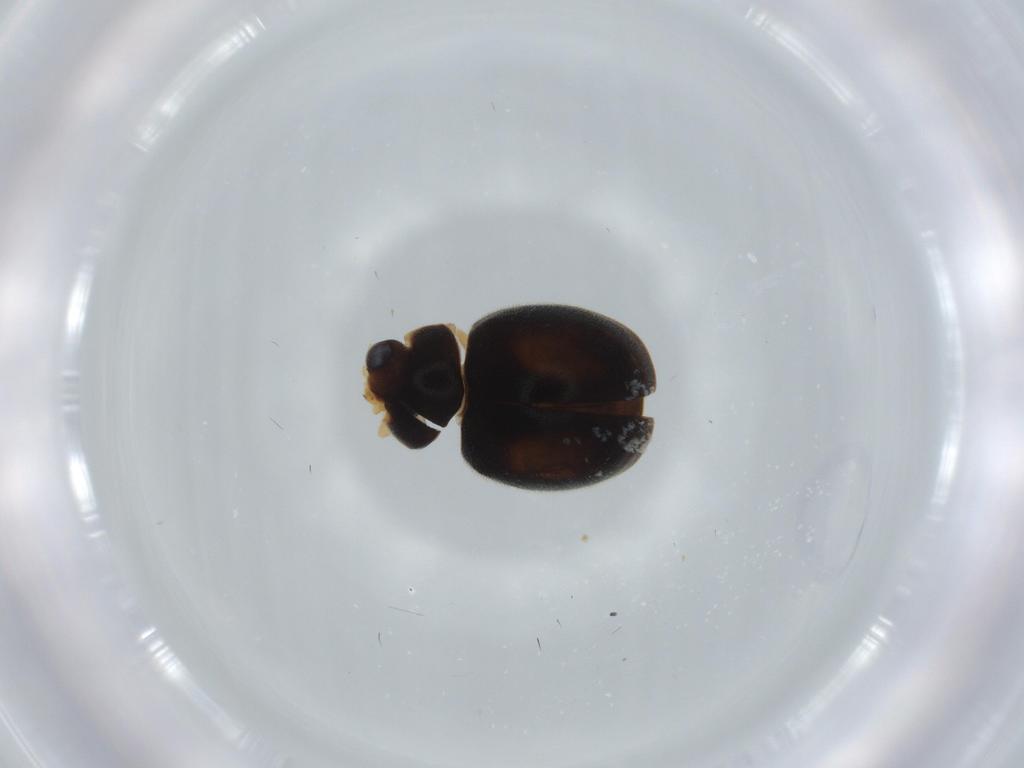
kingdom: Animalia
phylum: Arthropoda
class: Insecta
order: Coleoptera
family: Coccinellidae
